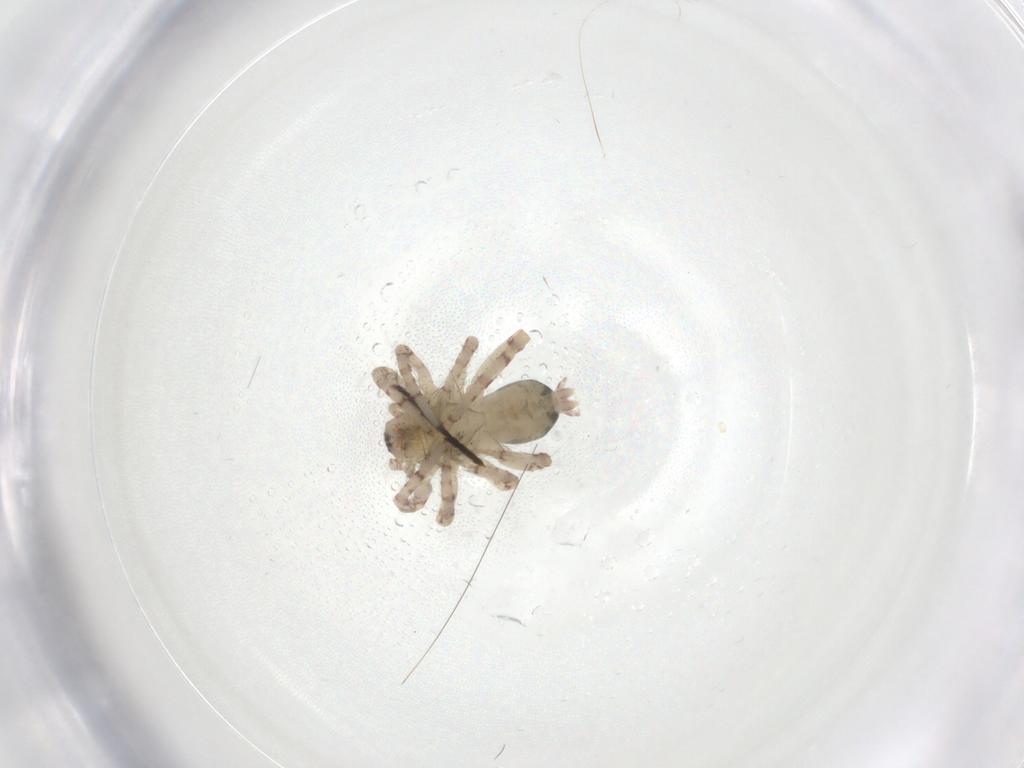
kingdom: Animalia
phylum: Arthropoda
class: Arachnida
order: Araneae
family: Anyphaenidae
